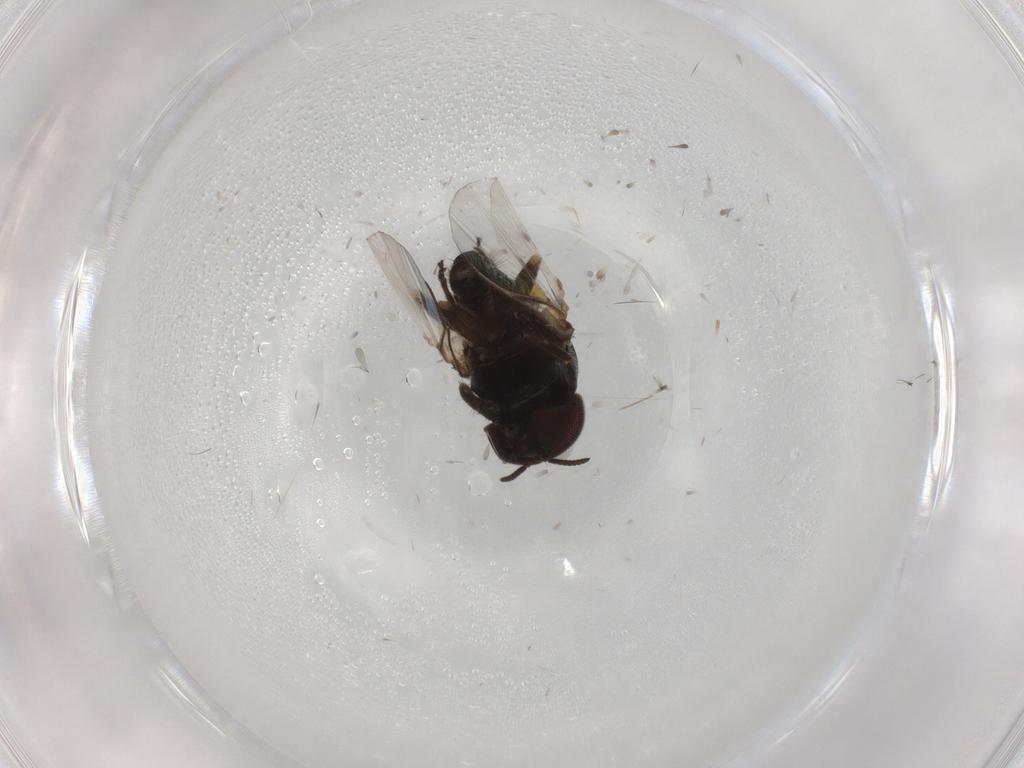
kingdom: Animalia
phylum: Arthropoda
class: Insecta
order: Diptera
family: Simuliidae
